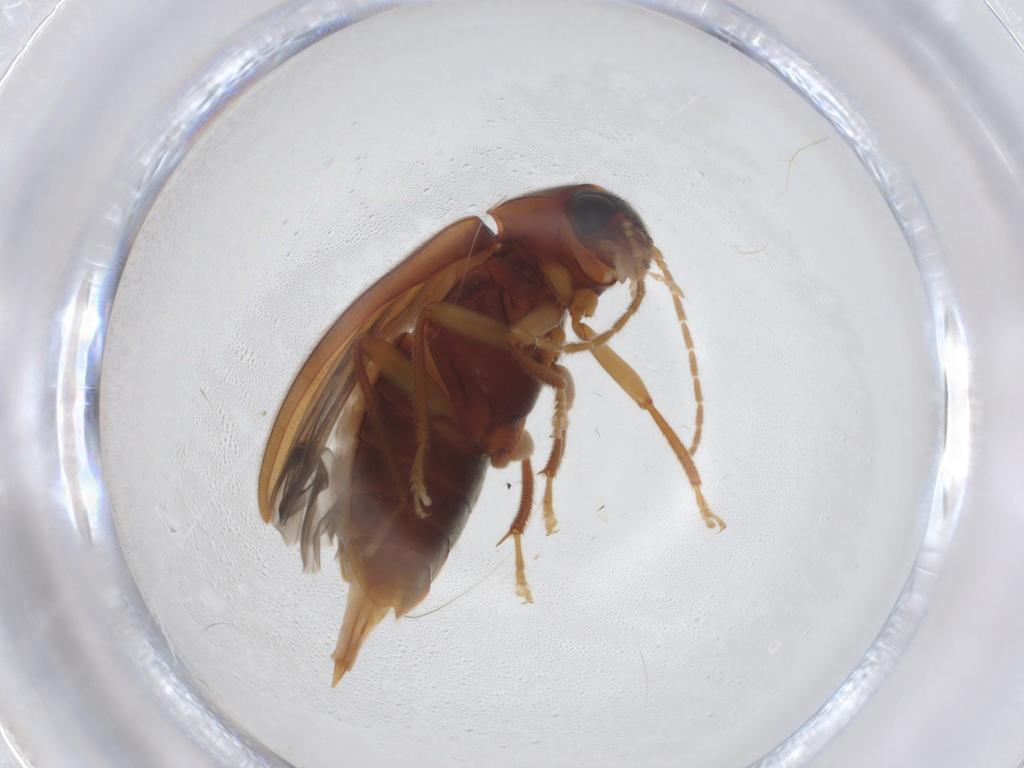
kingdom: Animalia
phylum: Arthropoda
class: Insecta
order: Coleoptera
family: Ptilodactylidae
